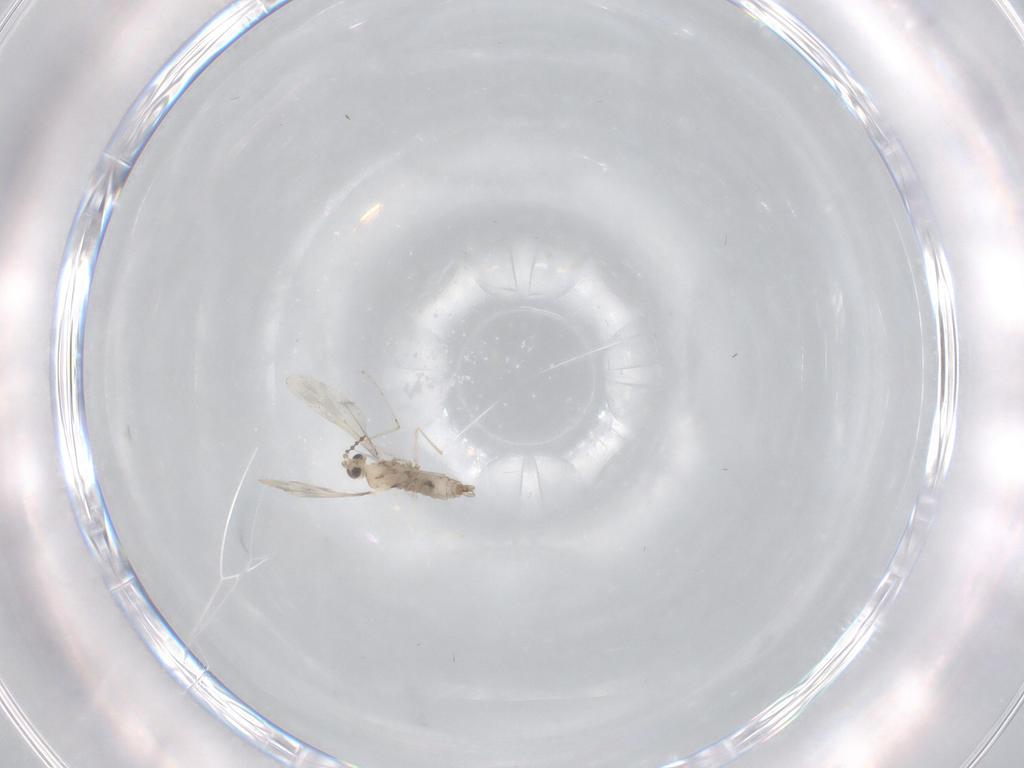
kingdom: Animalia
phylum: Arthropoda
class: Insecta
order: Diptera
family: Cecidomyiidae
